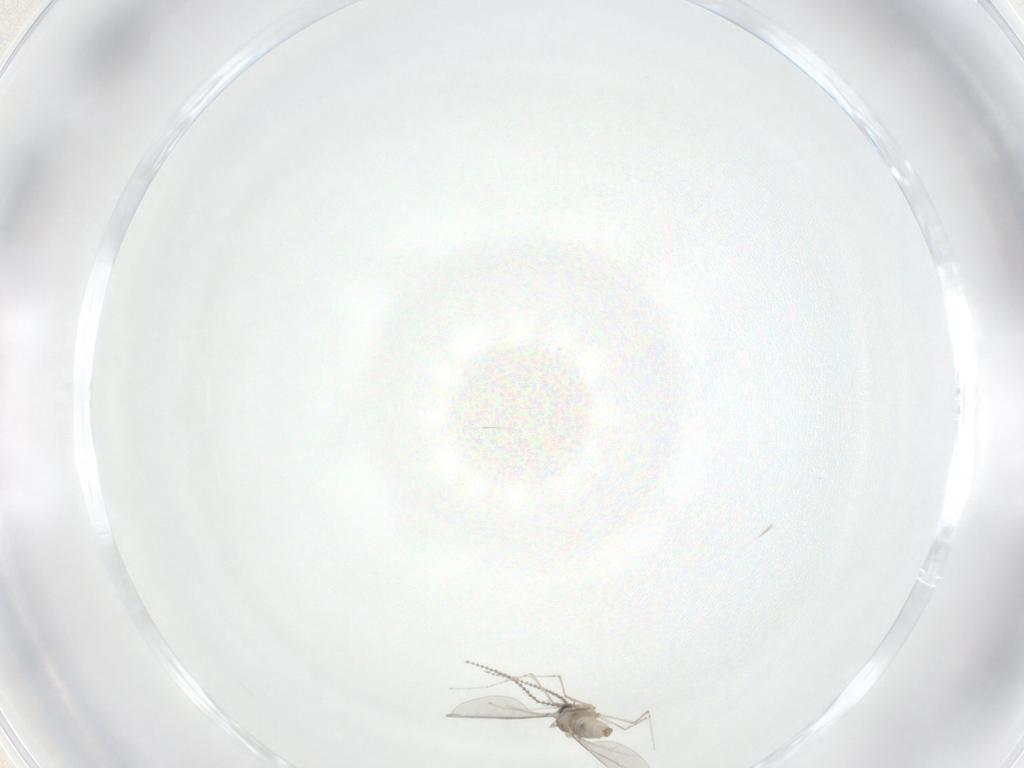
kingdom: Animalia
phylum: Arthropoda
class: Insecta
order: Diptera
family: Cecidomyiidae
